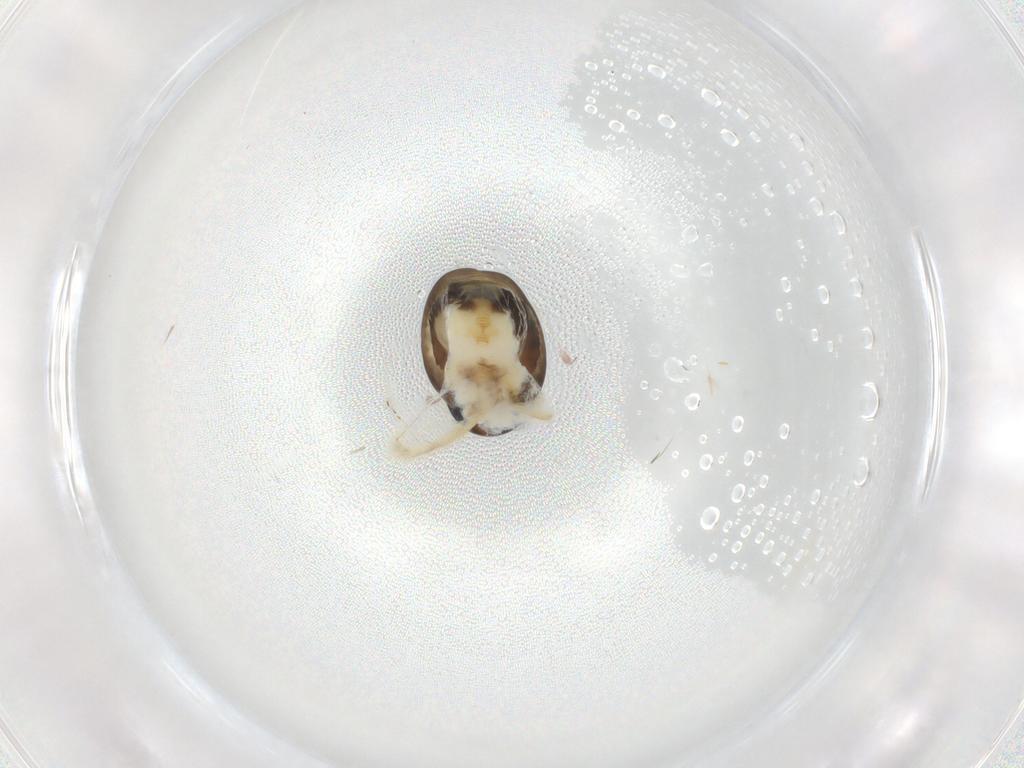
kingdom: Animalia
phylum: Arthropoda
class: Insecta
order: Hymenoptera
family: Dryinidae
